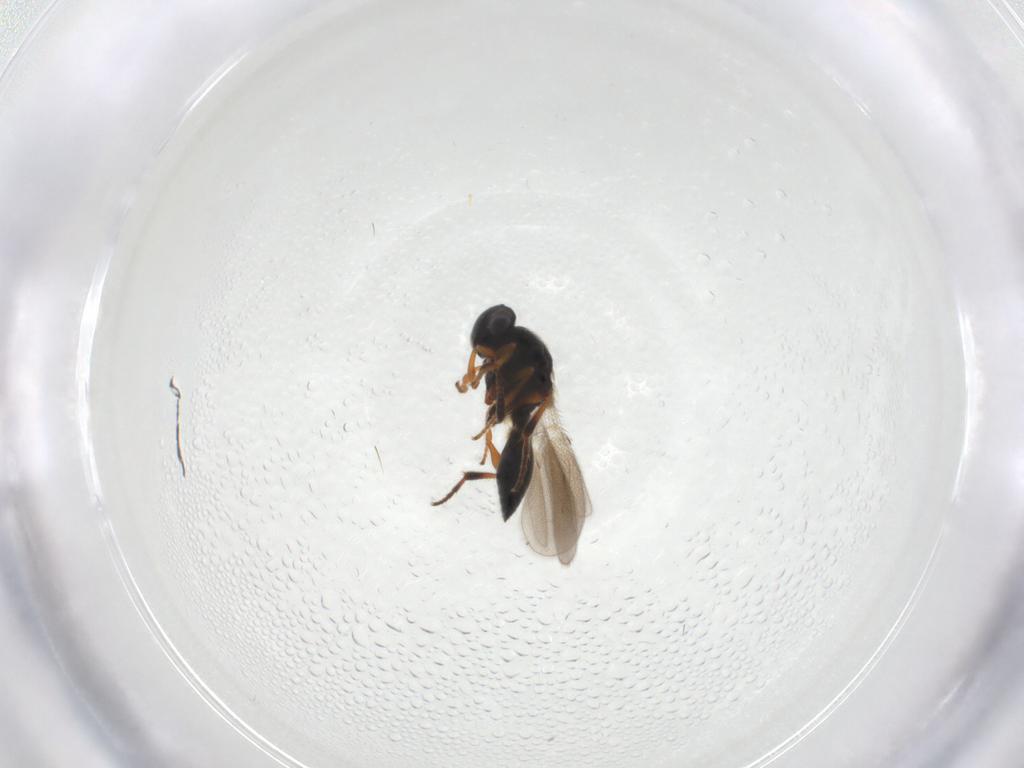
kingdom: Animalia
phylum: Arthropoda
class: Insecta
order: Hymenoptera
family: Platygastridae
